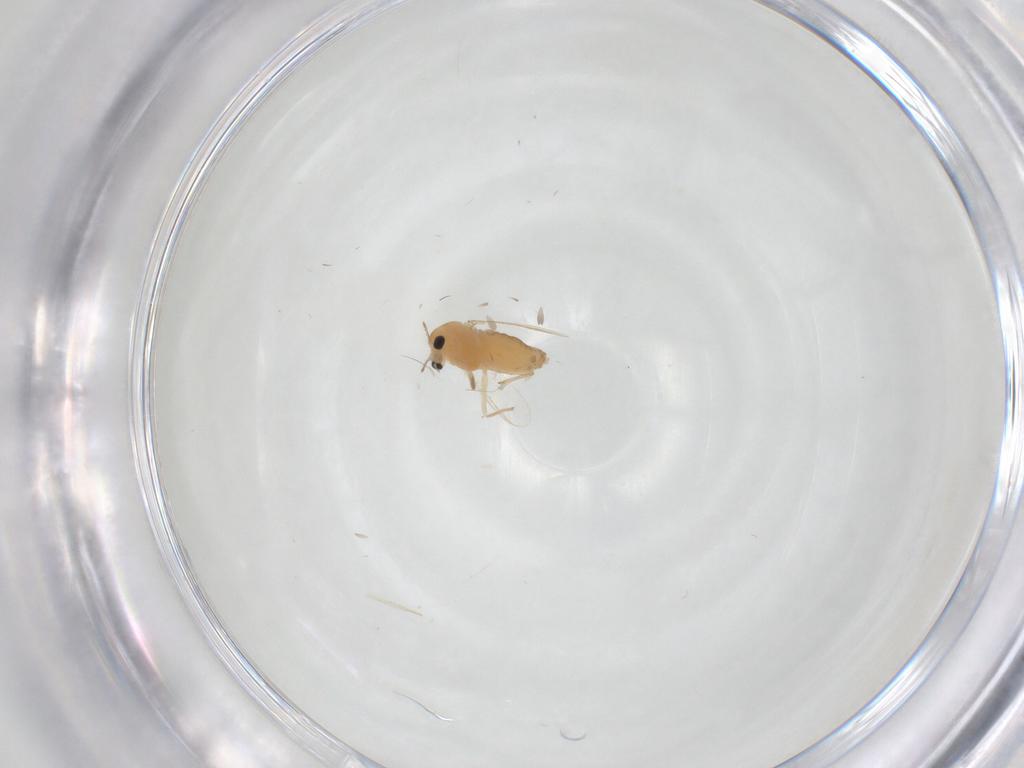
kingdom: Animalia
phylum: Arthropoda
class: Insecta
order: Diptera
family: Chironomidae
